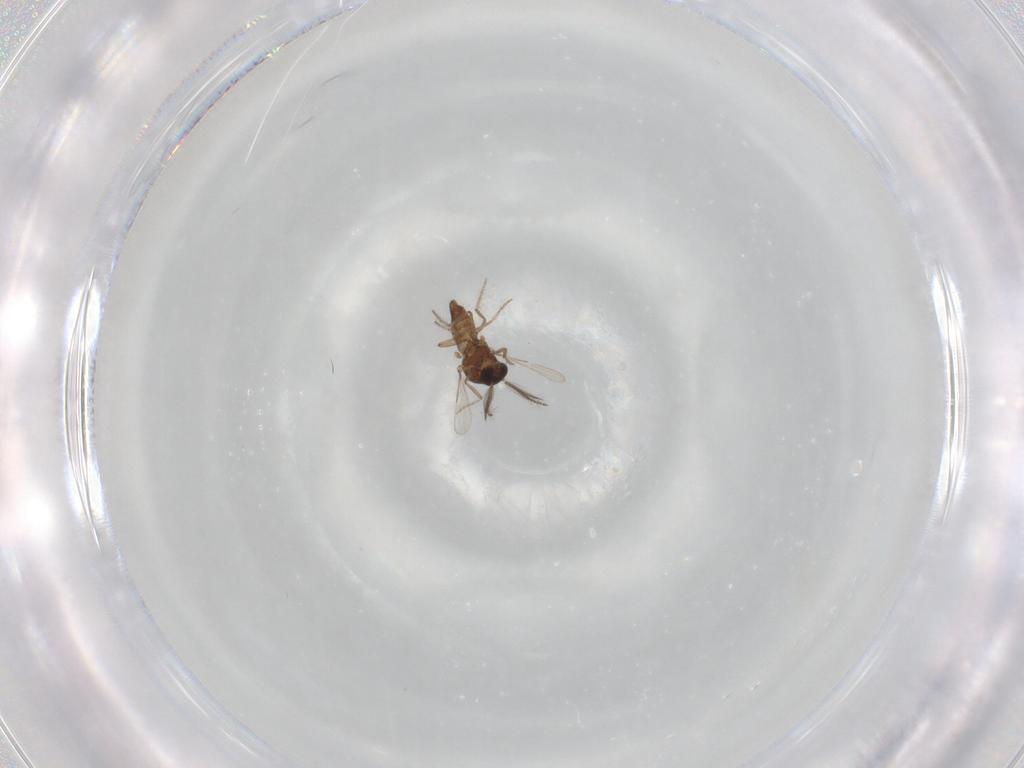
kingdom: Animalia
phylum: Arthropoda
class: Insecta
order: Diptera
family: Ceratopogonidae
